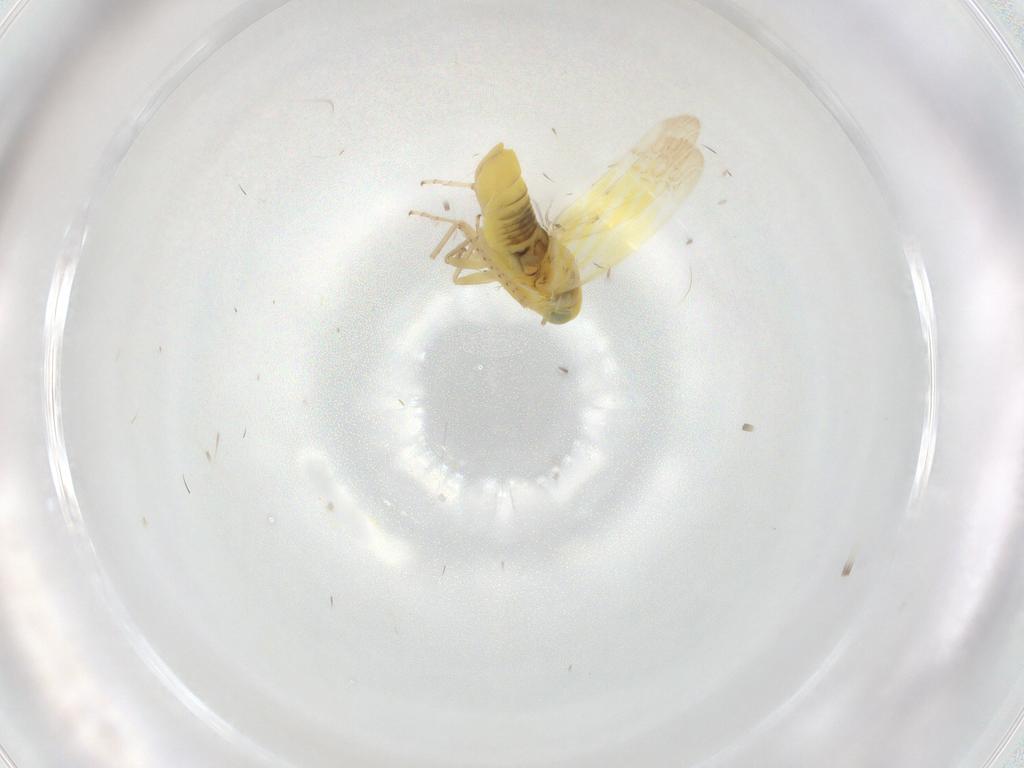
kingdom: Animalia
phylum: Arthropoda
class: Insecta
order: Hemiptera
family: Cicadellidae
